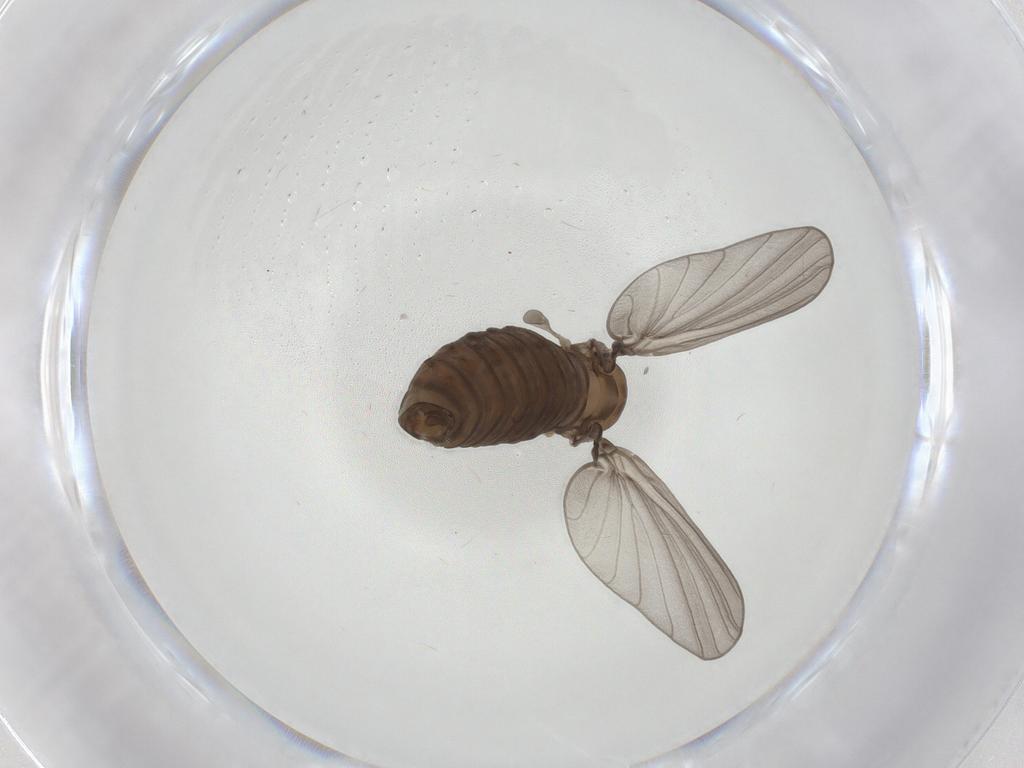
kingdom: Animalia
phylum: Arthropoda
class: Insecta
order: Diptera
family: Psychodidae
